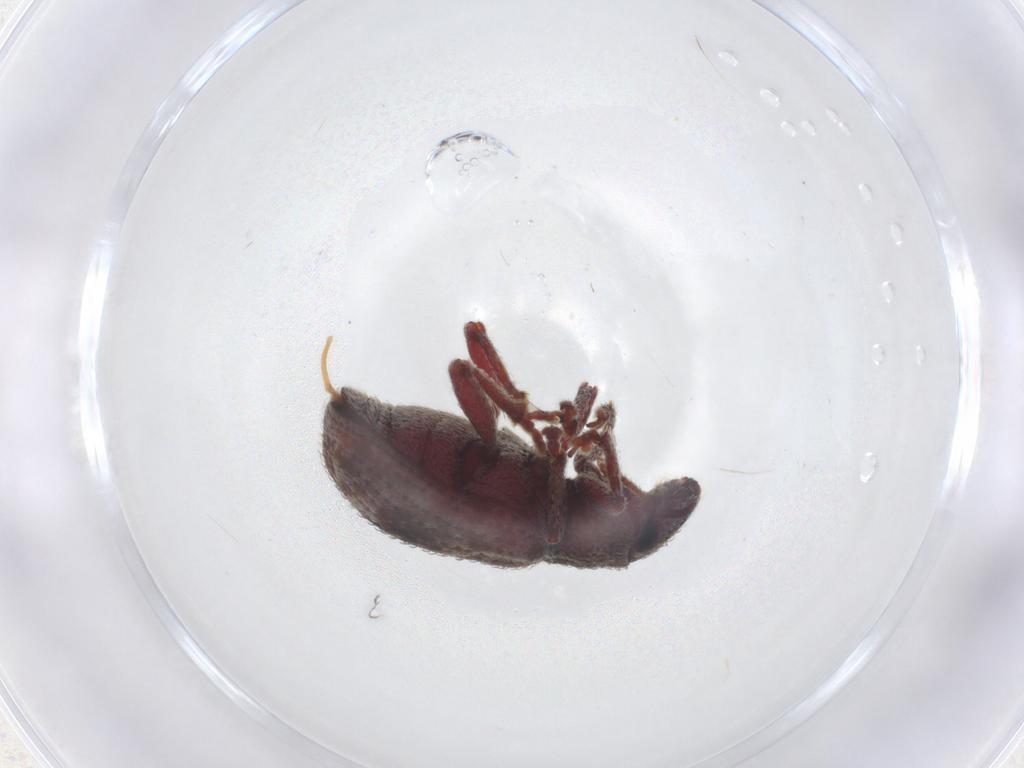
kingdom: Animalia
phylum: Arthropoda
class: Insecta
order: Coleoptera
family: Curculionidae
